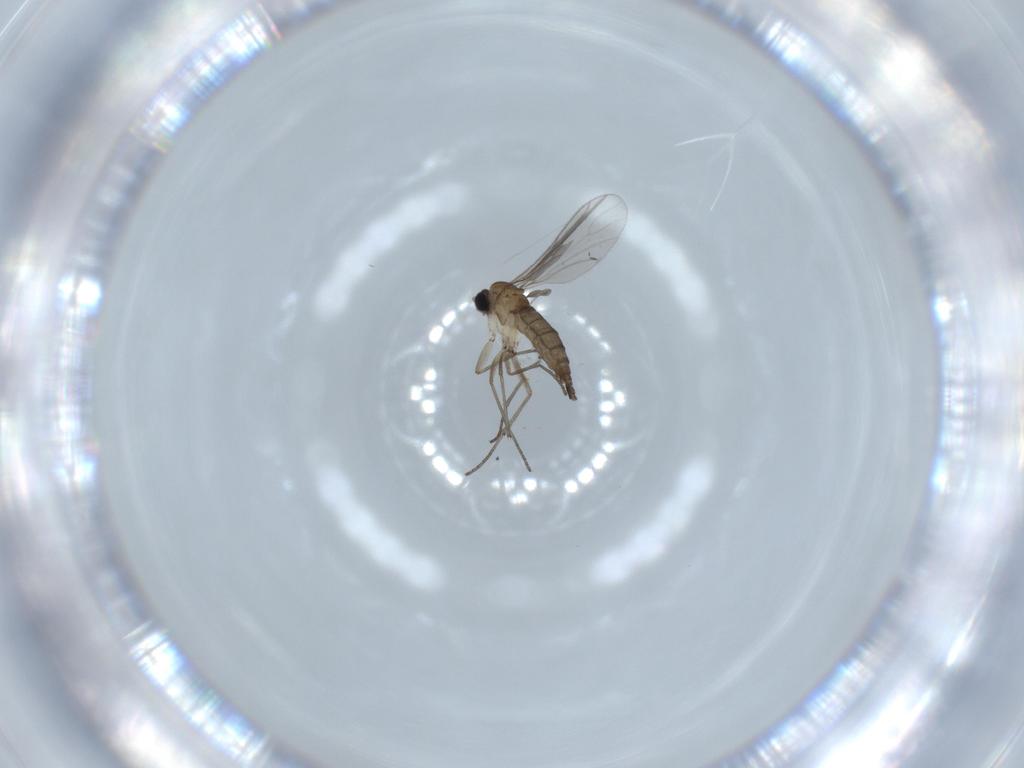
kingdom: Animalia
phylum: Arthropoda
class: Insecta
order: Diptera
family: Sciaridae
